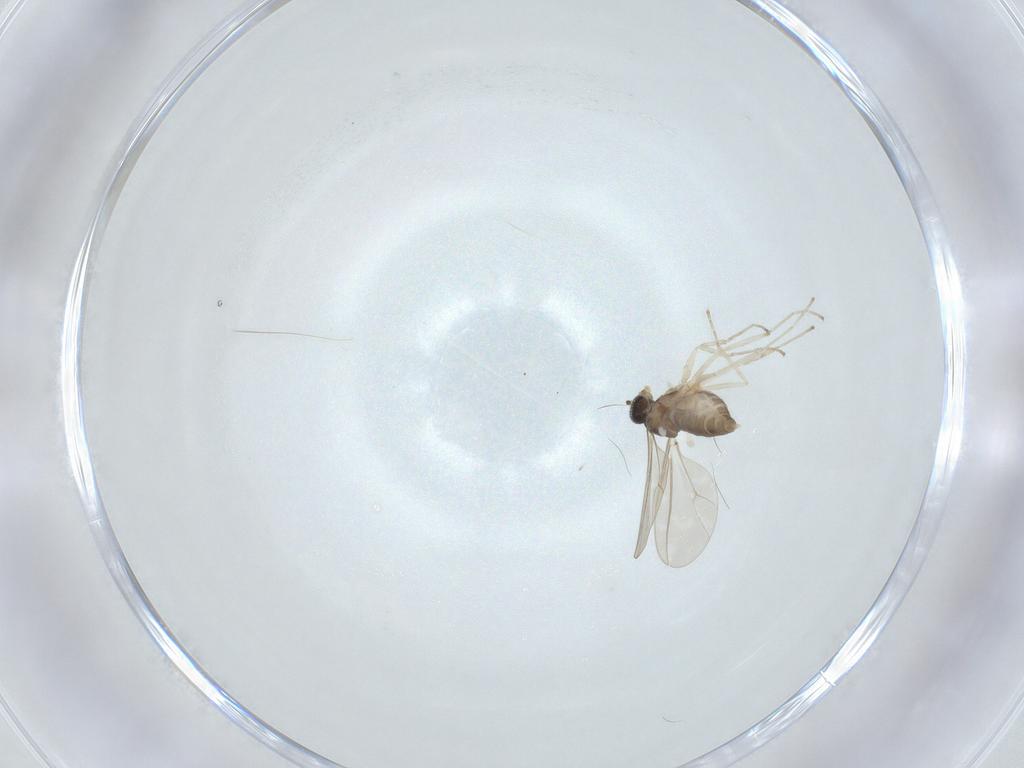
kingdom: Animalia
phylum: Arthropoda
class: Insecta
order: Diptera
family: Cecidomyiidae
